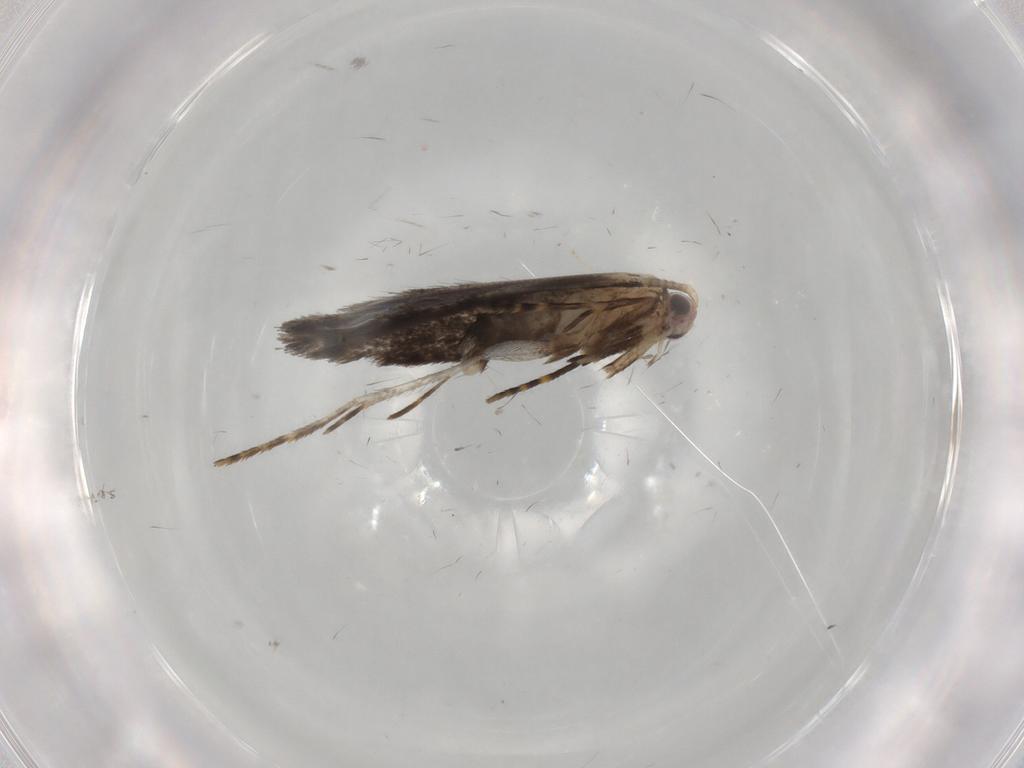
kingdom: Animalia
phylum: Arthropoda
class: Insecta
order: Lepidoptera
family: Tineidae
